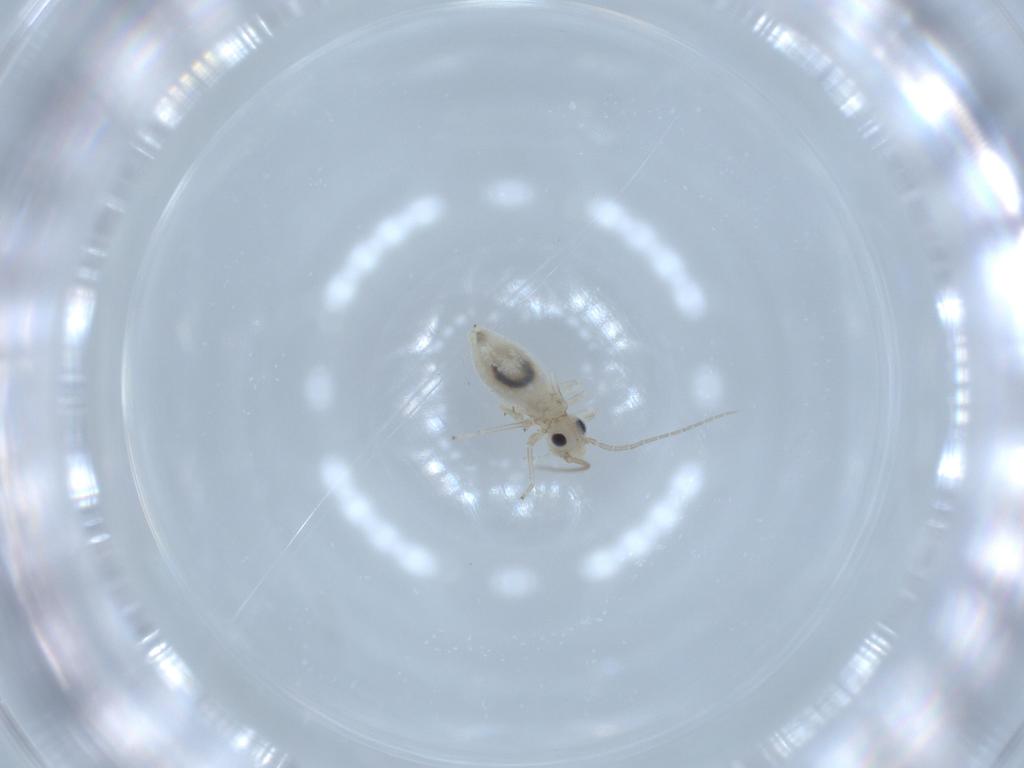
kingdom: Animalia
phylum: Arthropoda
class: Insecta
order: Psocodea
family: Caeciliusidae
